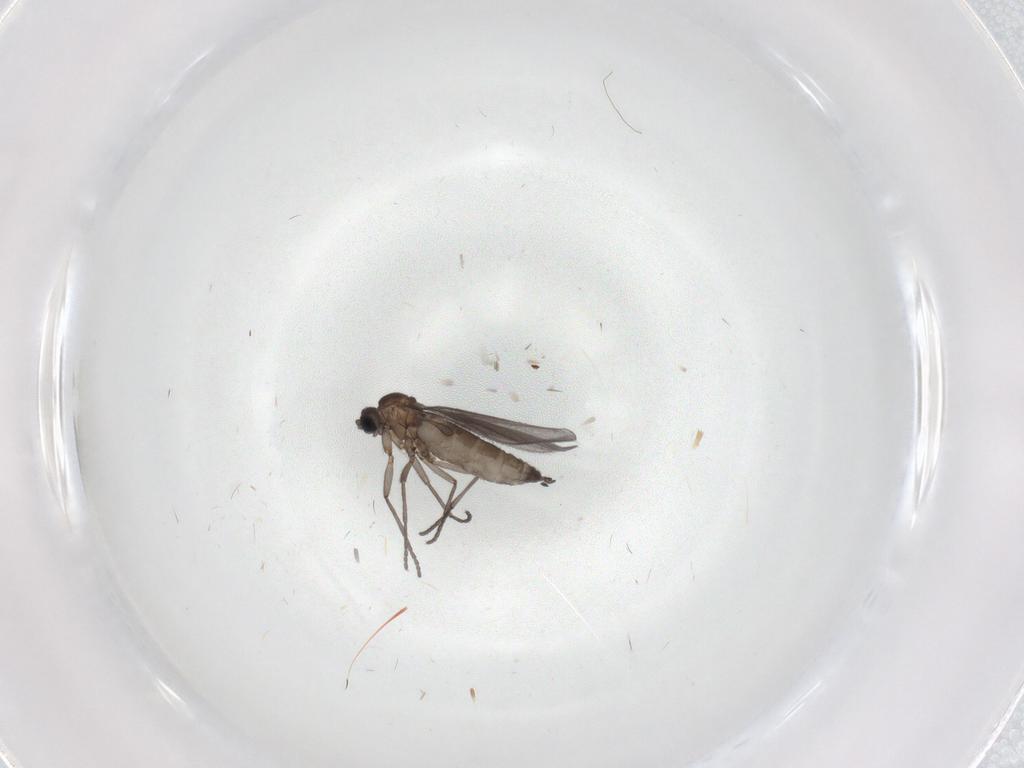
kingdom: Animalia
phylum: Arthropoda
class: Insecta
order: Diptera
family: Sciaridae
